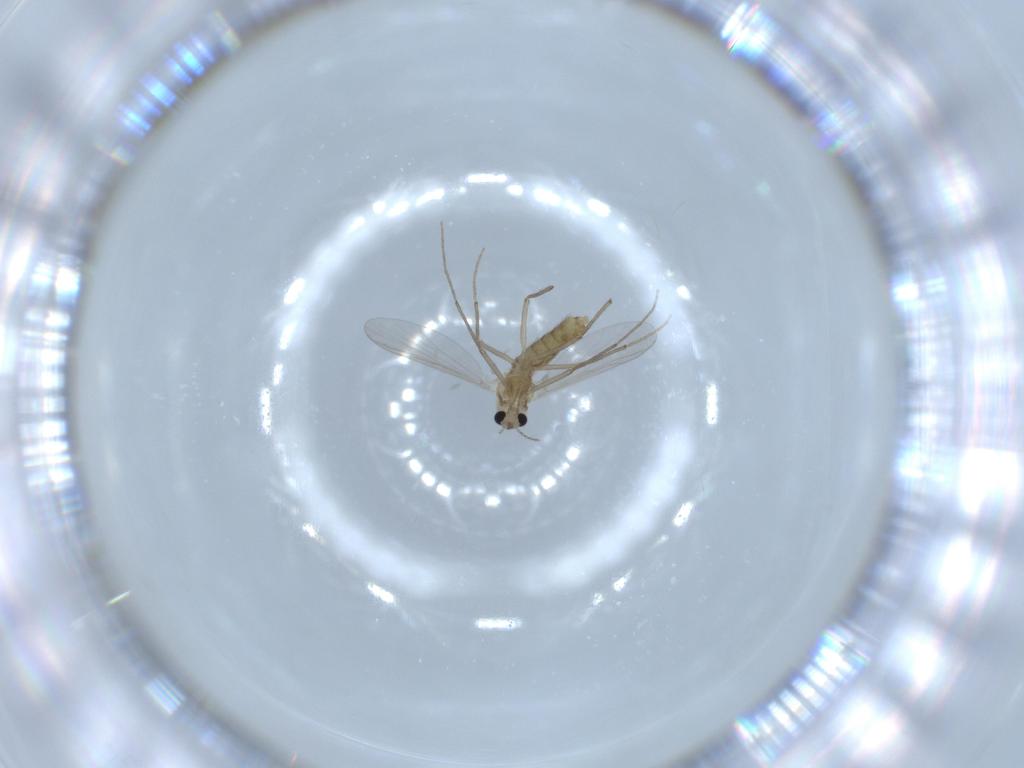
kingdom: Animalia
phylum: Arthropoda
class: Insecta
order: Diptera
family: Chironomidae
